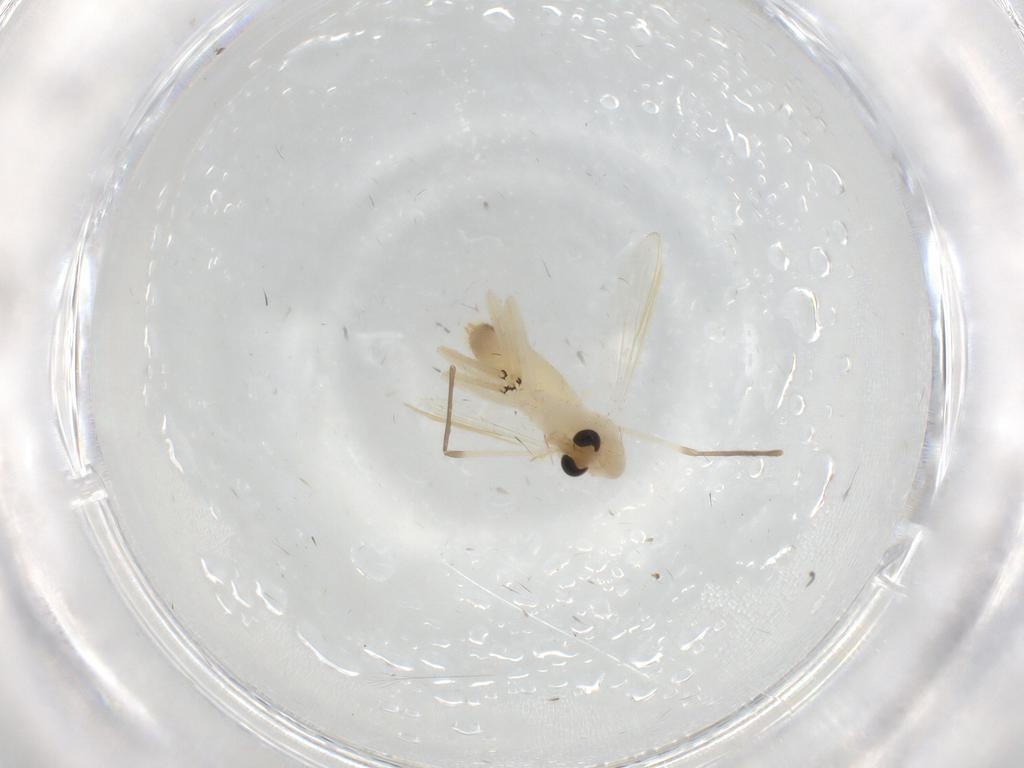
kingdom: Animalia
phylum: Arthropoda
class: Insecta
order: Diptera
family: Chironomidae
